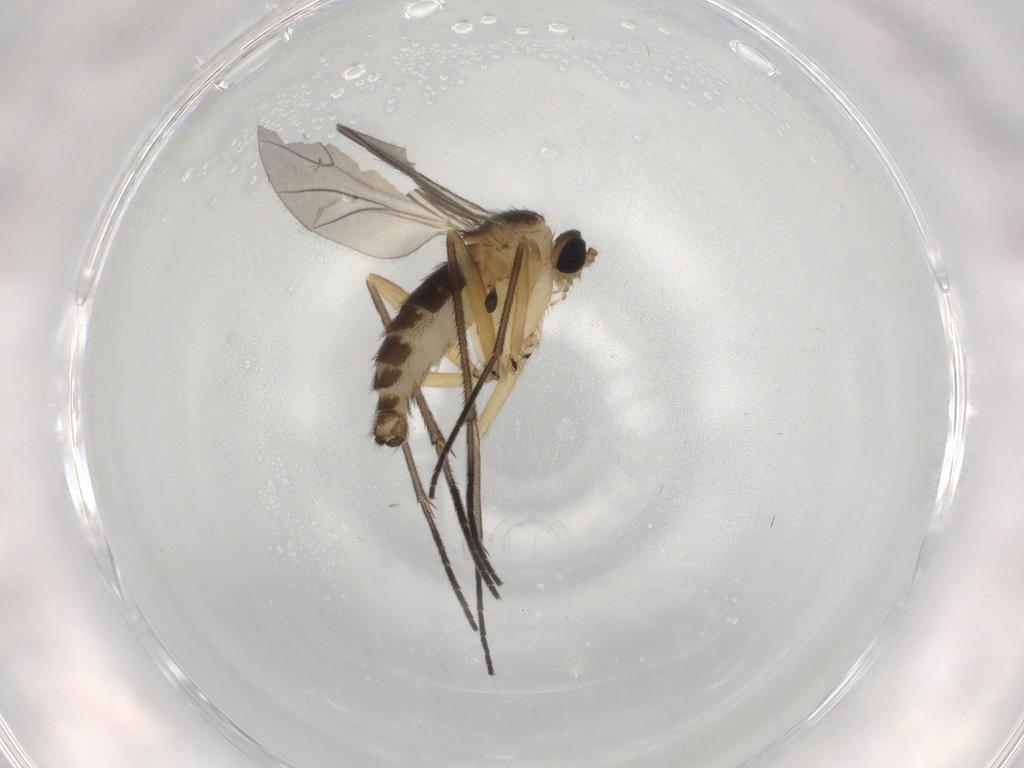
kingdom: Animalia
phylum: Arthropoda
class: Insecta
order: Diptera
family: Sciaridae
